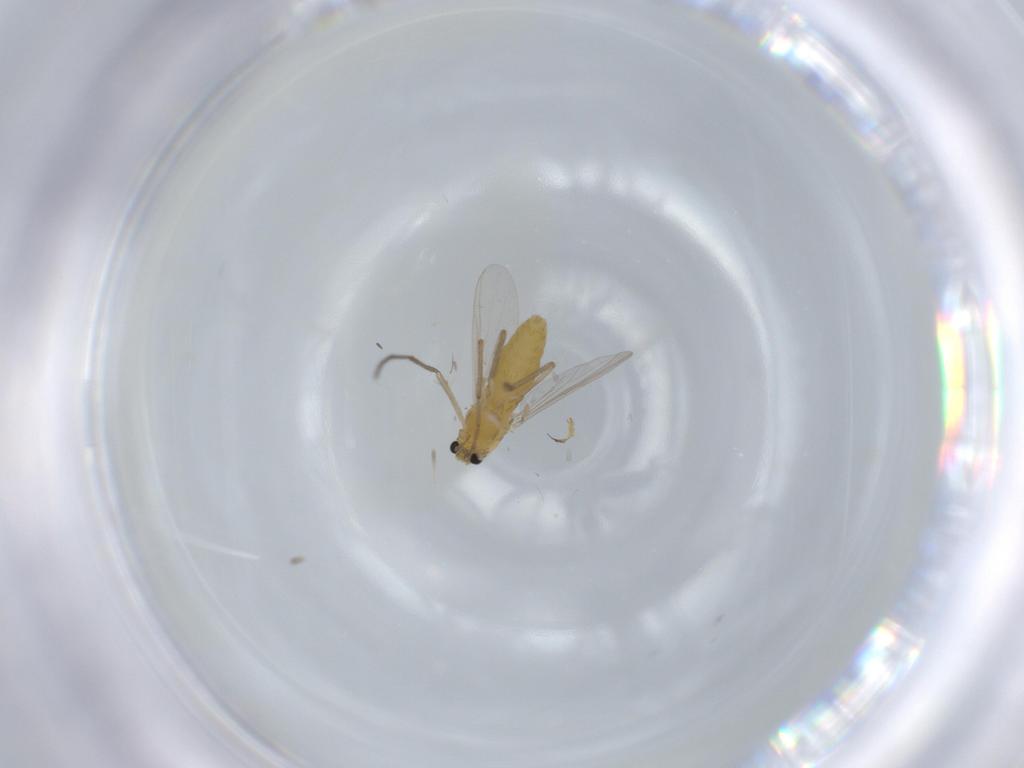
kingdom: Animalia
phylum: Arthropoda
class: Insecta
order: Diptera
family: Chironomidae
